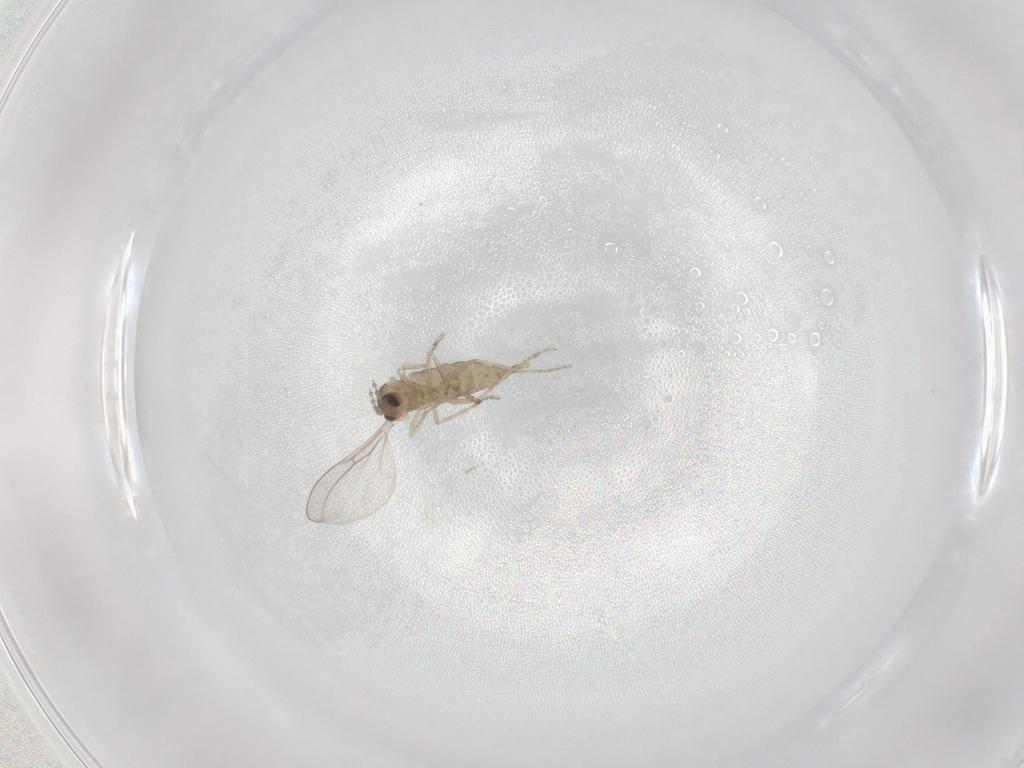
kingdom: Animalia
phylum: Arthropoda
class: Insecta
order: Diptera
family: Cecidomyiidae
